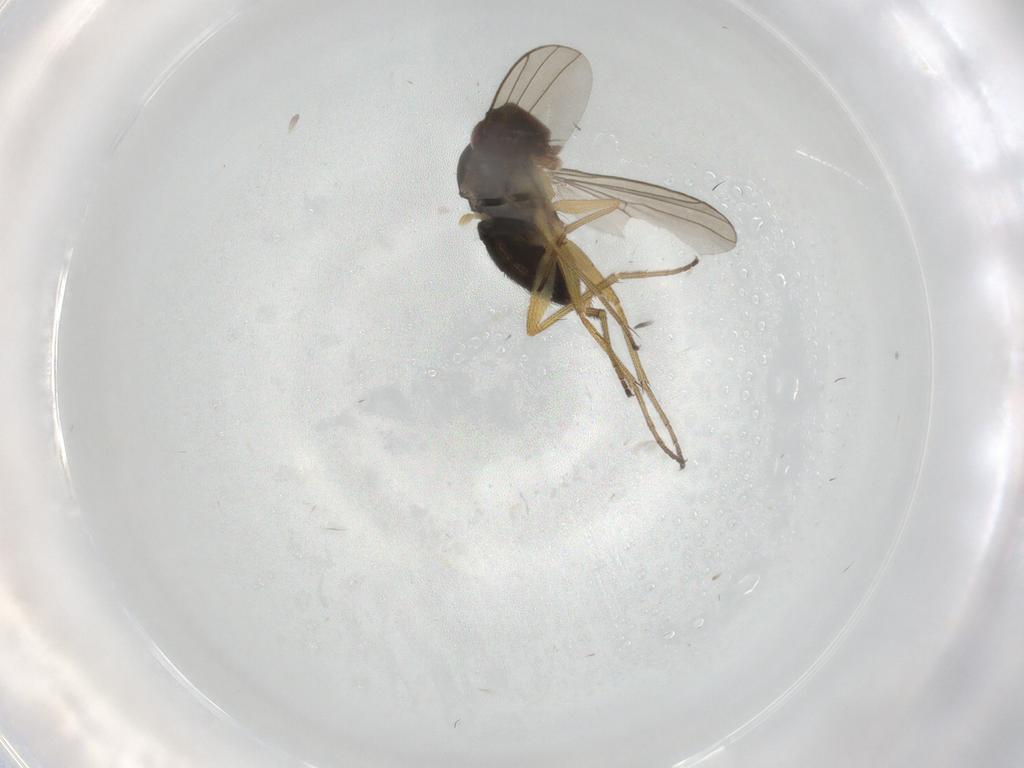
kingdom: Animalia
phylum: Arthropoda
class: Insecta
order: Diptera
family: Dolichopodidae
